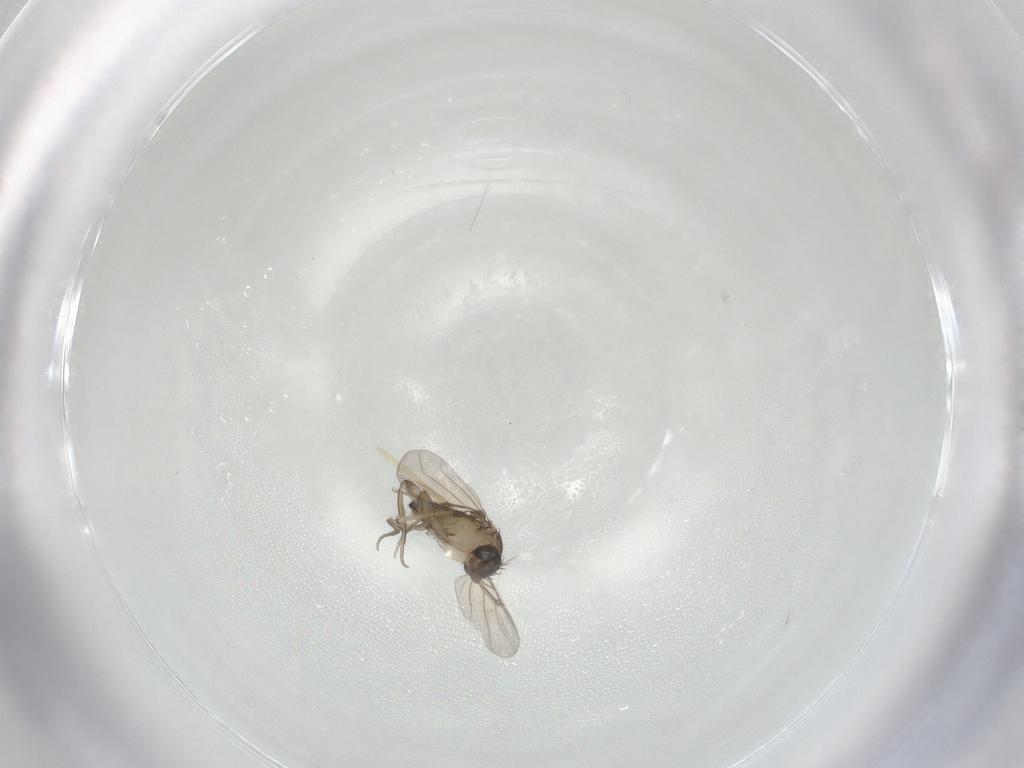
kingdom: Animalia
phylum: Arthropoda
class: Insecta
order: Diptera
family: Phoridae
